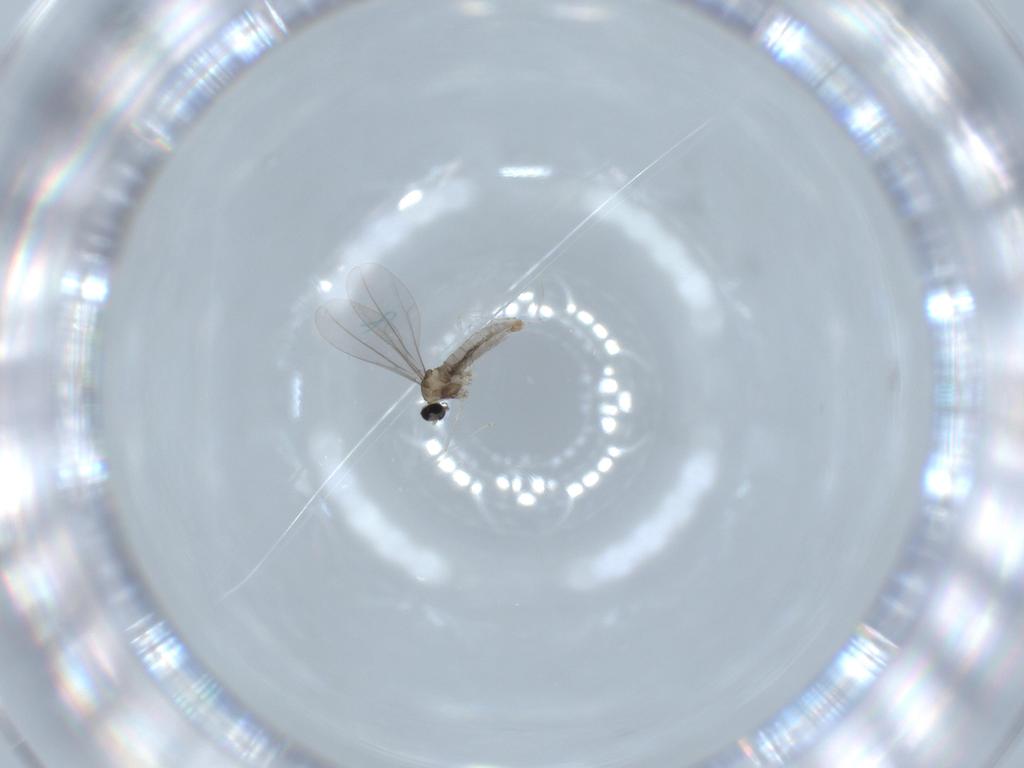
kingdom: Animalia
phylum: Arthropoda
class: Insecta
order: Diptera
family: Cecidomyiidae
